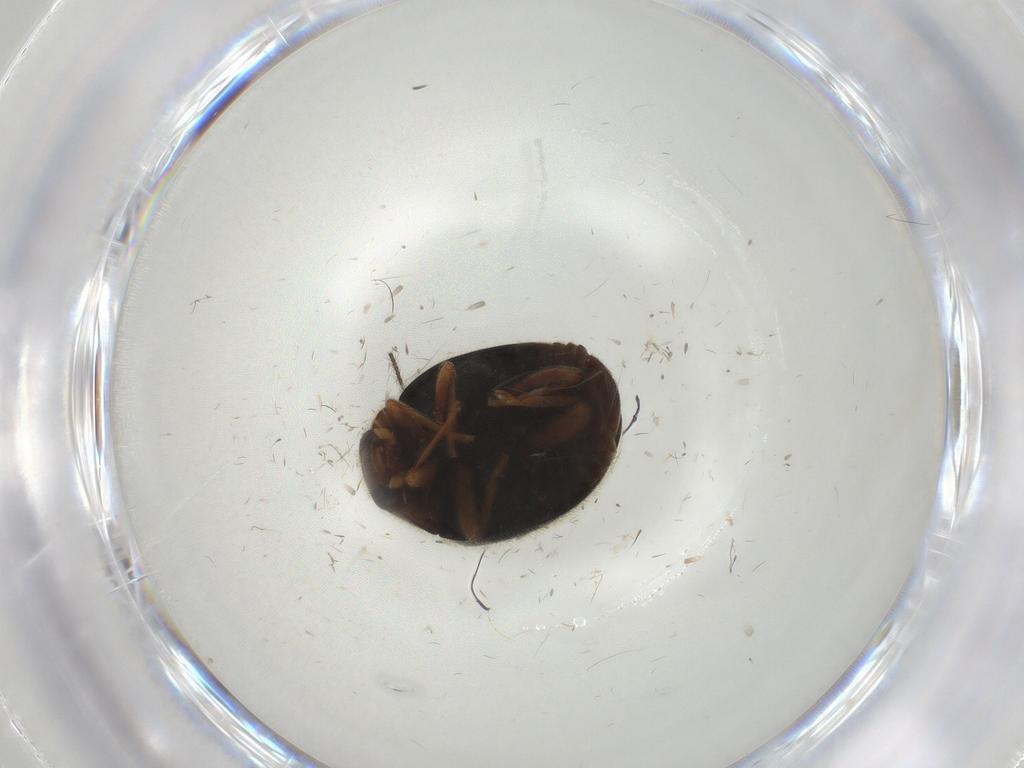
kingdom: Animalia
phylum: Arthropoda
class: Insecta
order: Coleoptera
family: Coccinellidae
